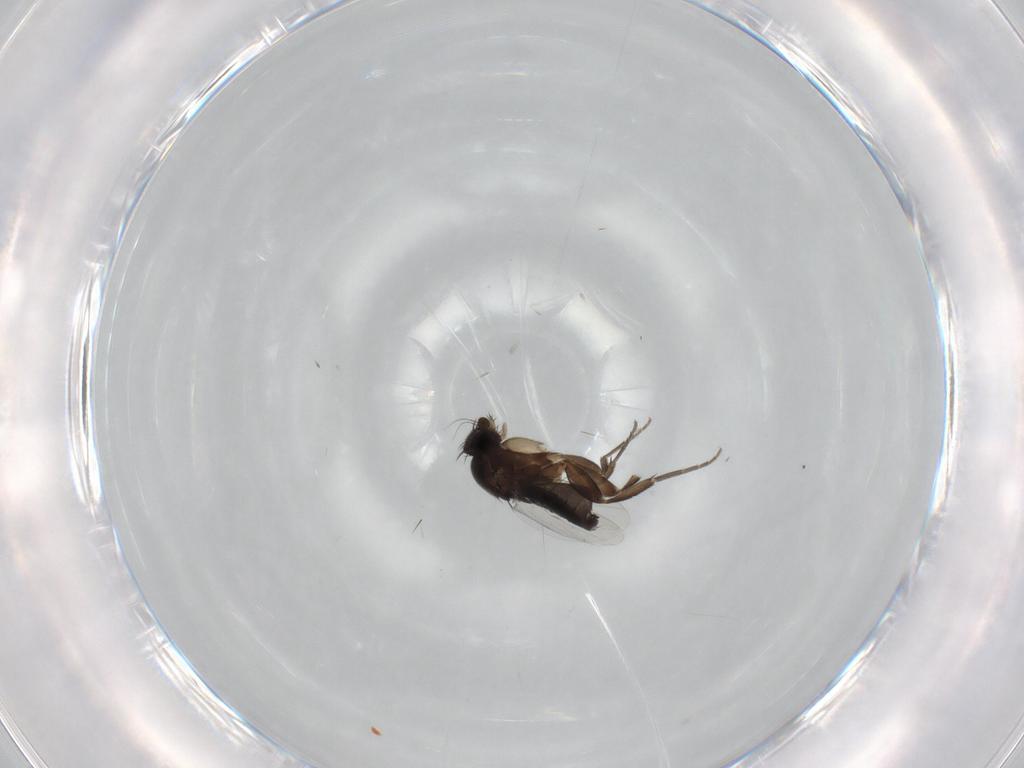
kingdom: Animalia
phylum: Arthropoda
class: Insecta
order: Diptera
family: Phoridae
